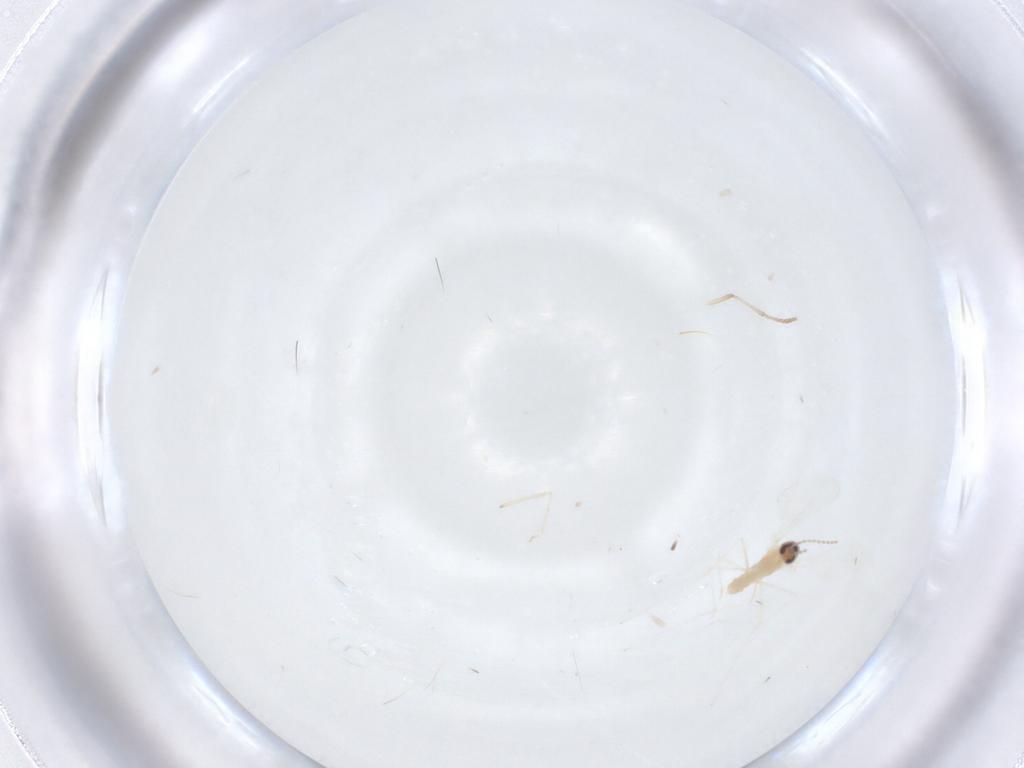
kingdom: Animalia
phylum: Arthropoda
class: Insecta
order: Diptera
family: Cecidomyiidae
